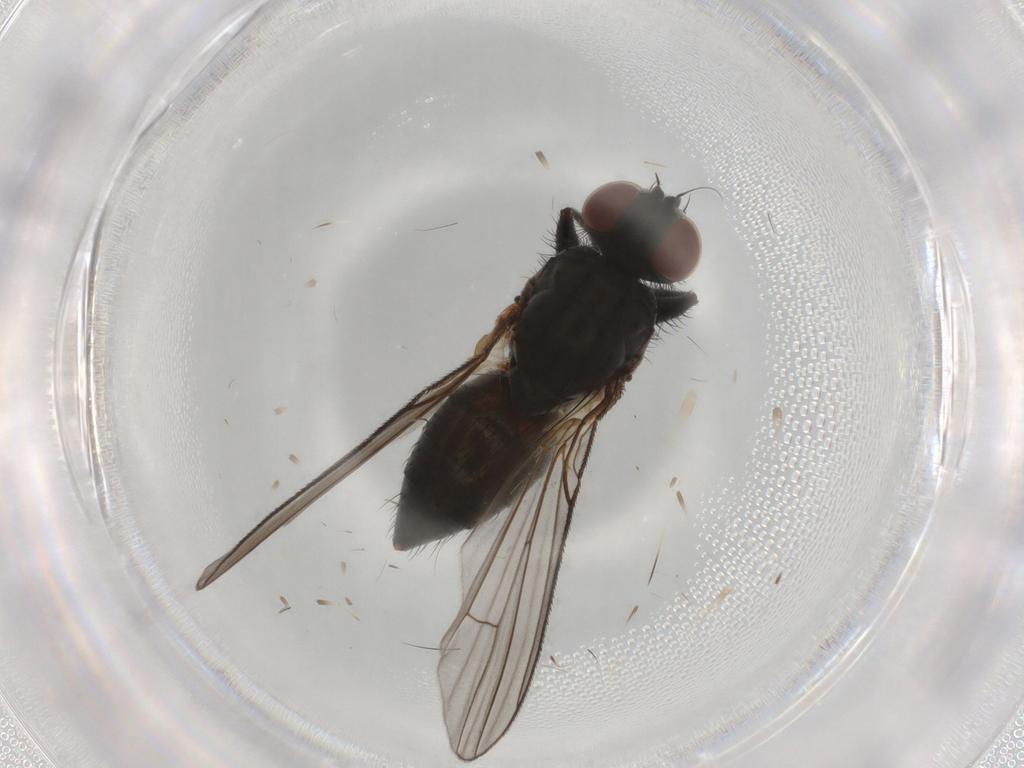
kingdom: Animalia
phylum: Arthropoda
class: Insecta
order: Diptera
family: Muscidae
